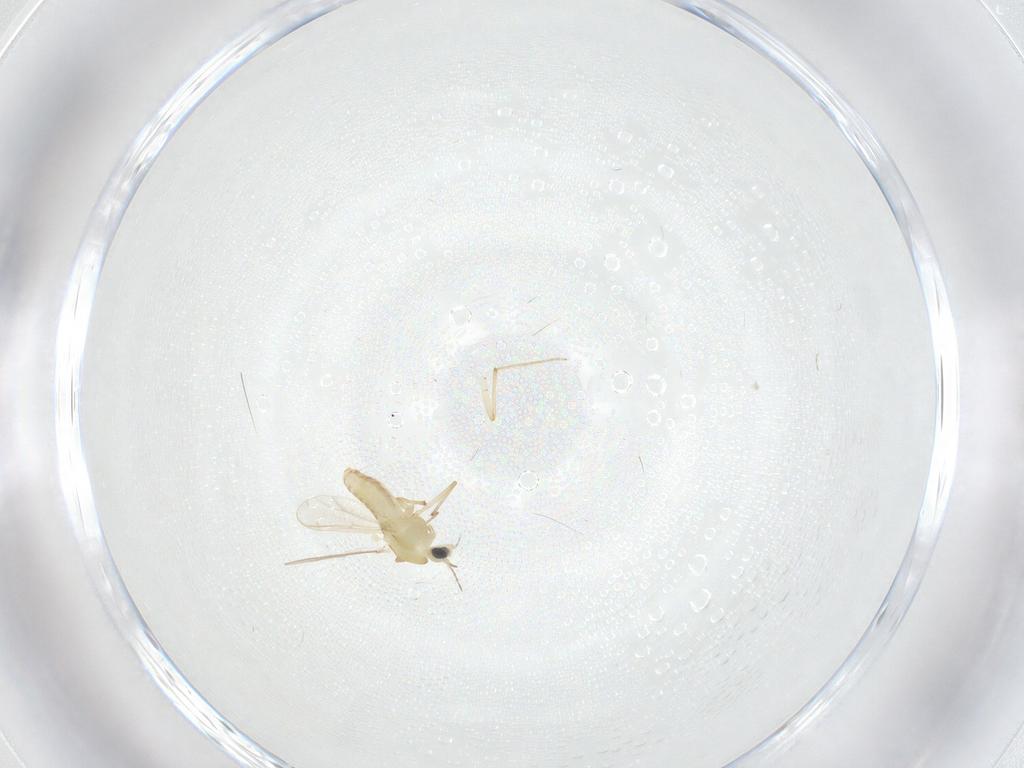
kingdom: Animalia
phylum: Arthropoda
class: Insecta
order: Diptera
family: Chironomidae
